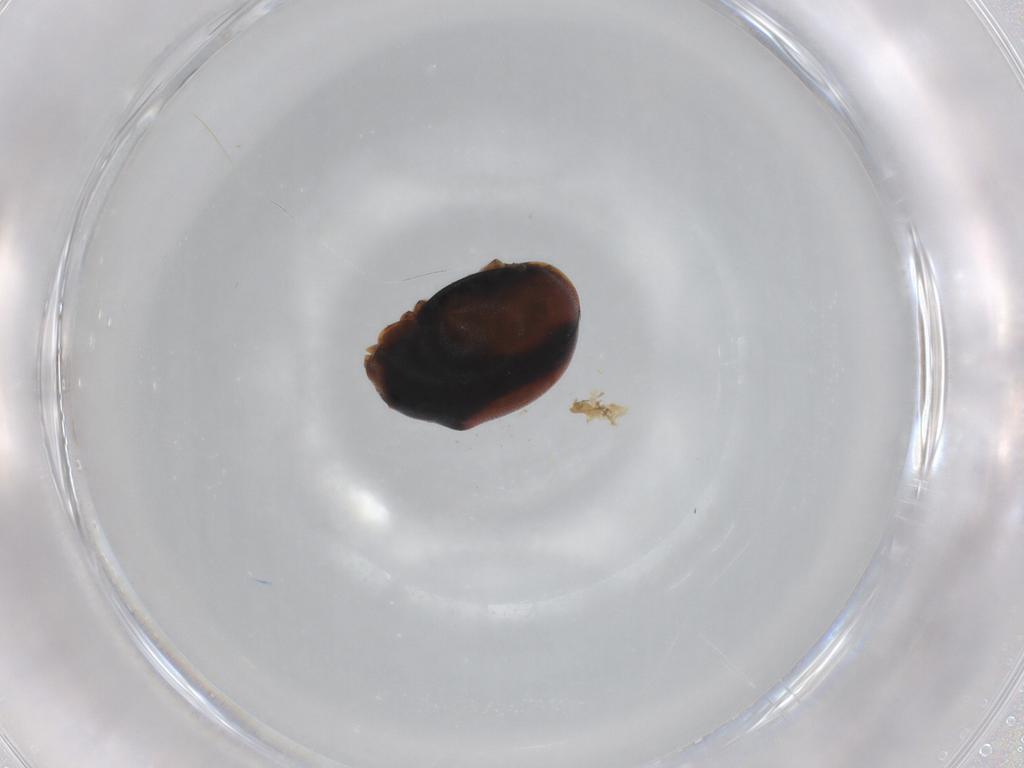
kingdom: Animalia
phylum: Arthropoda
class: Insecta
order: Coleoptera
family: Coccinellidae
